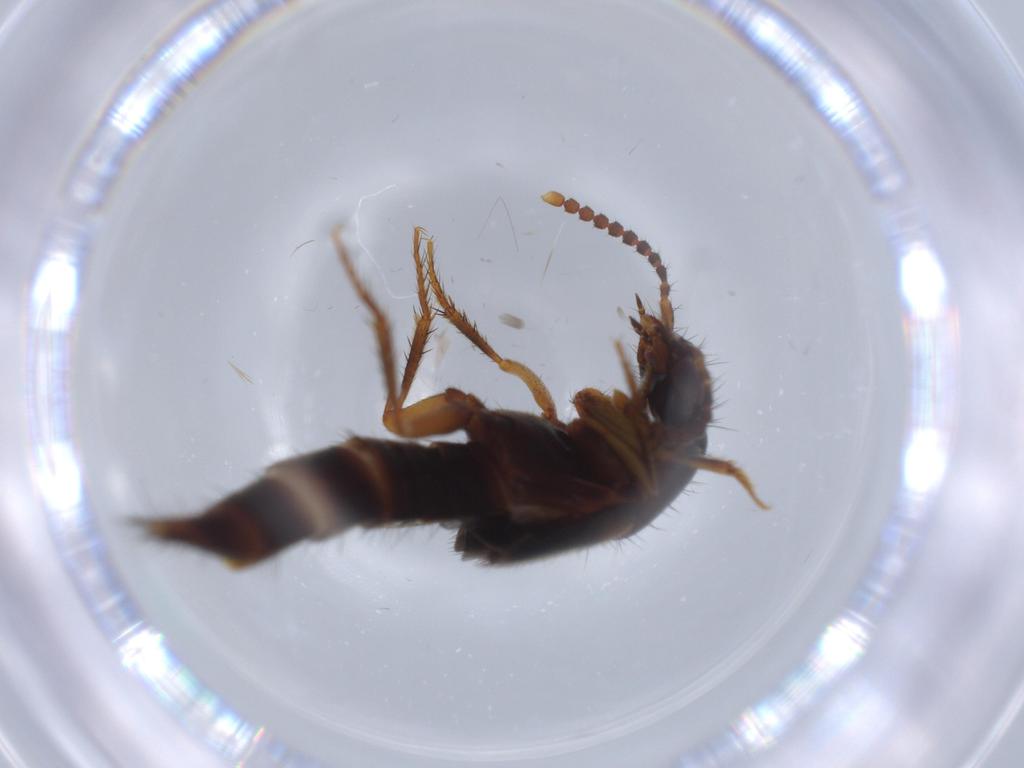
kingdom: Animalia
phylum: Arthropoda
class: Insecta
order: Coleoptera
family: Staphylinidae
